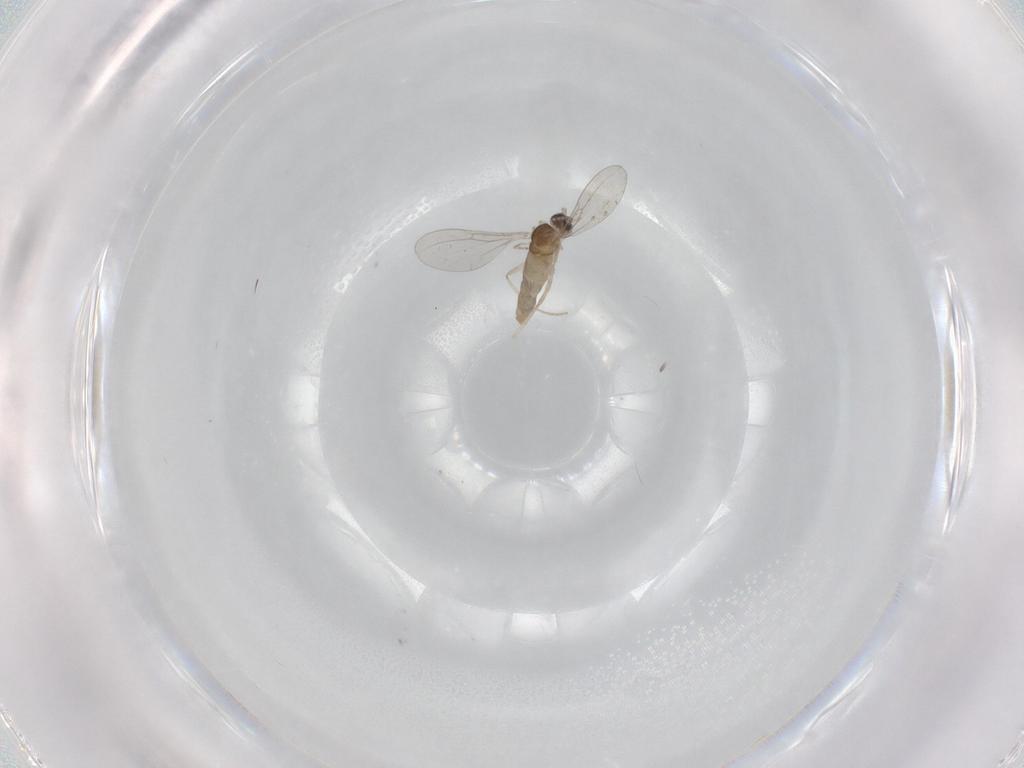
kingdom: Animalia
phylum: Arthropoda
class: Insecta
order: Diptera
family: Cecidomyiidae
